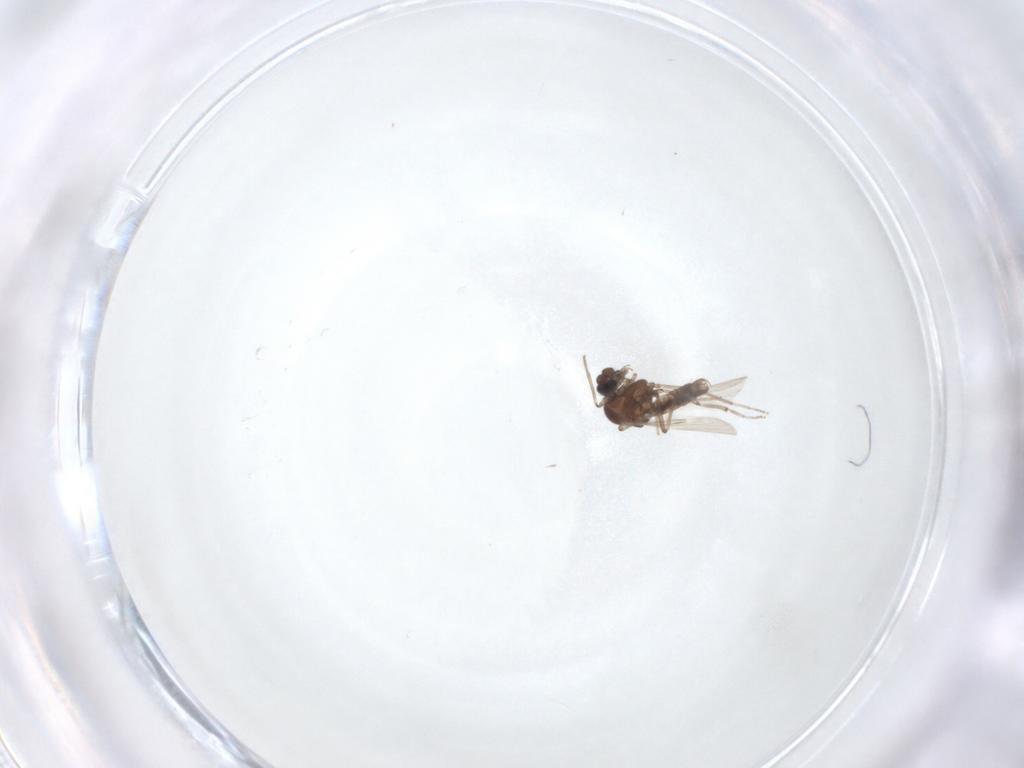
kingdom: Animalia
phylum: Arthropoda
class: Insecta
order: Diptera
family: Ceratopogonidae
